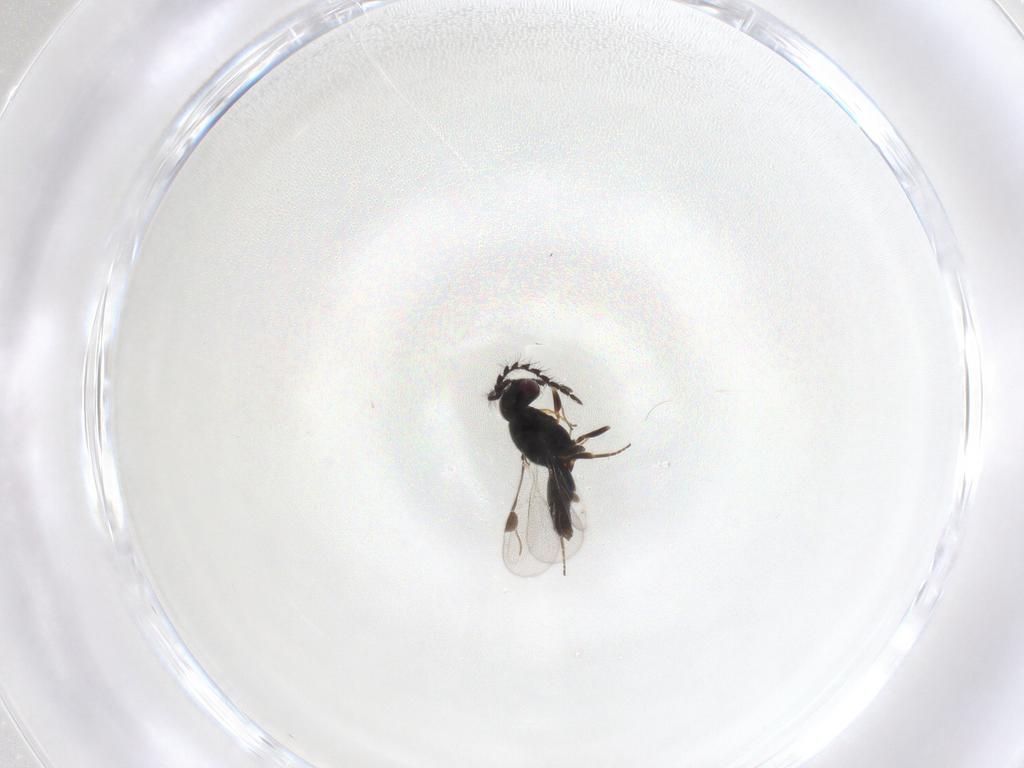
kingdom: Animalia
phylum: Arthropoda
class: Insecta
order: Hymenoptera
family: Megaspilidae
